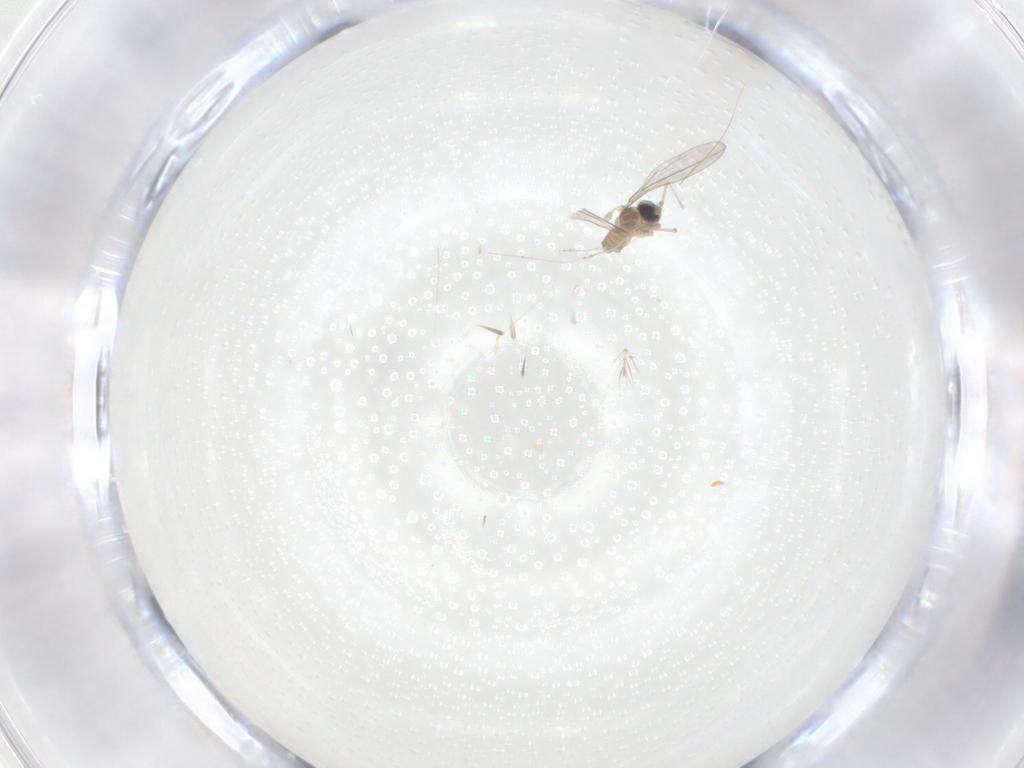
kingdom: Animalia
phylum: Arthropoda
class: Insecta
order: Diptera
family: Cecidomyiidae
